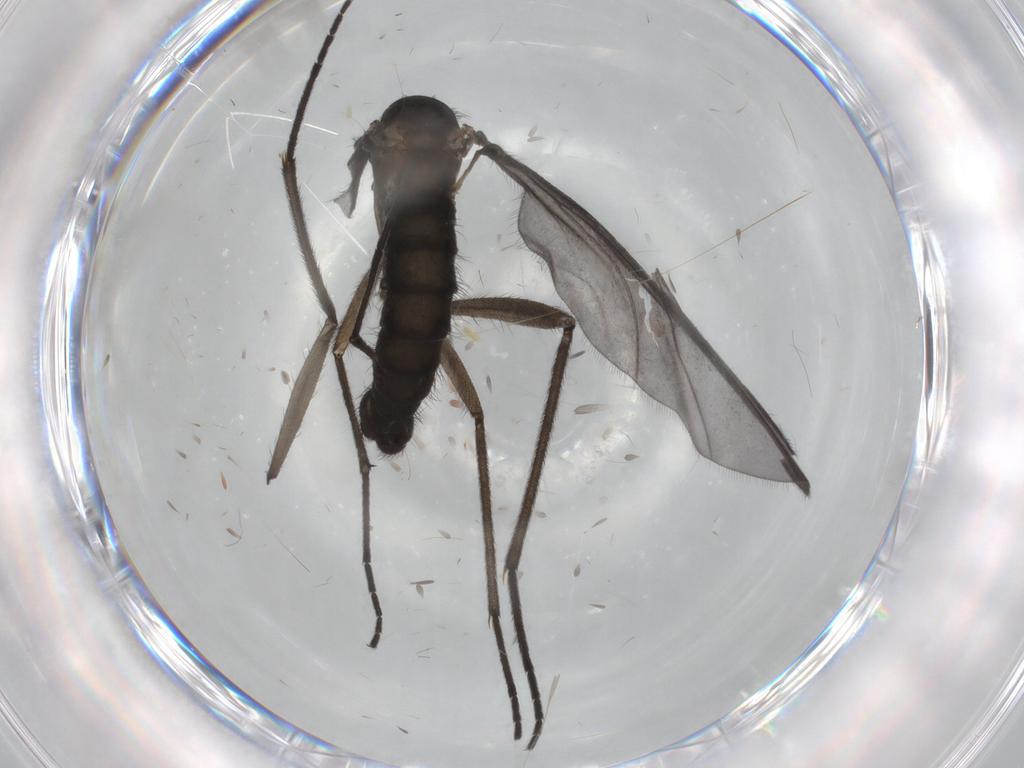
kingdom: Animalia
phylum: Arthropoda
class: Insecta
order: Diptera
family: Sciaridae
